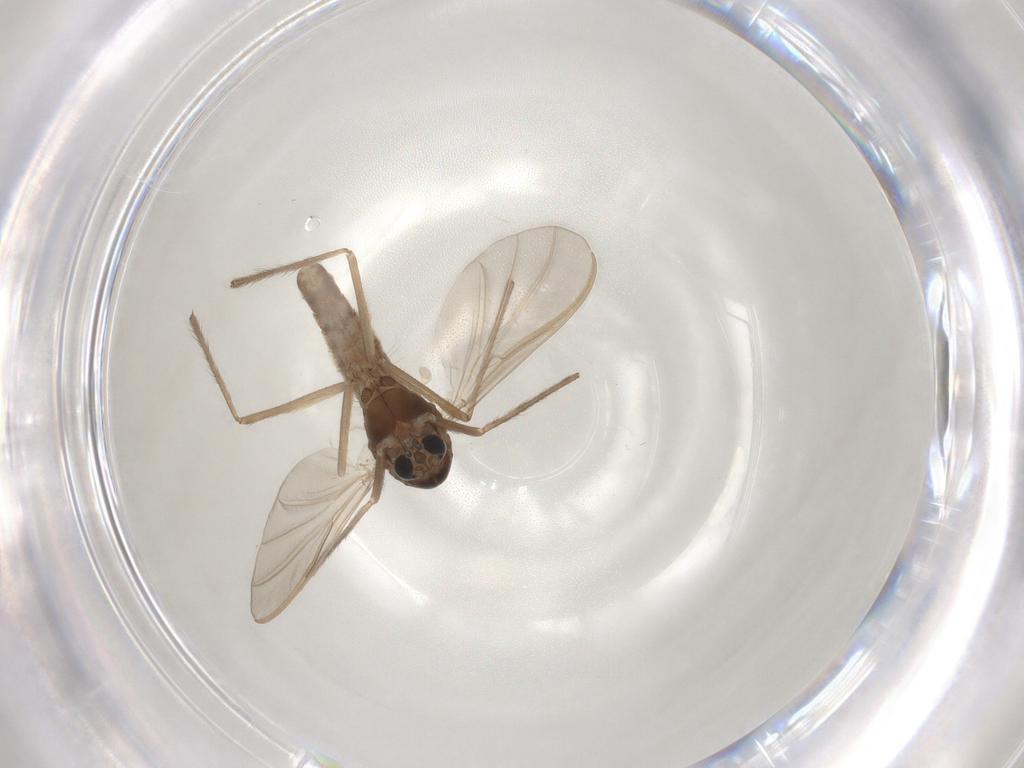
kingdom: Animalia
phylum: Arthropoda
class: Insecta
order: Diptera
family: Chironomidae
